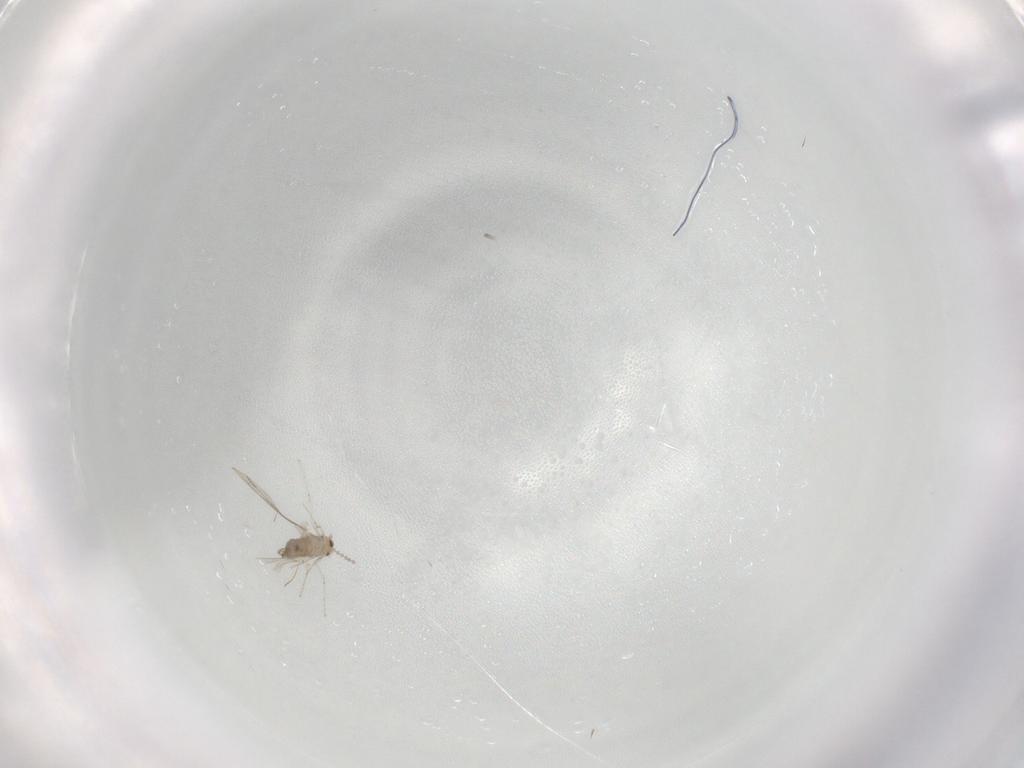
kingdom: Animalia
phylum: Arthropoda
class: Insecta
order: Diptera
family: Cecidomyiidae
